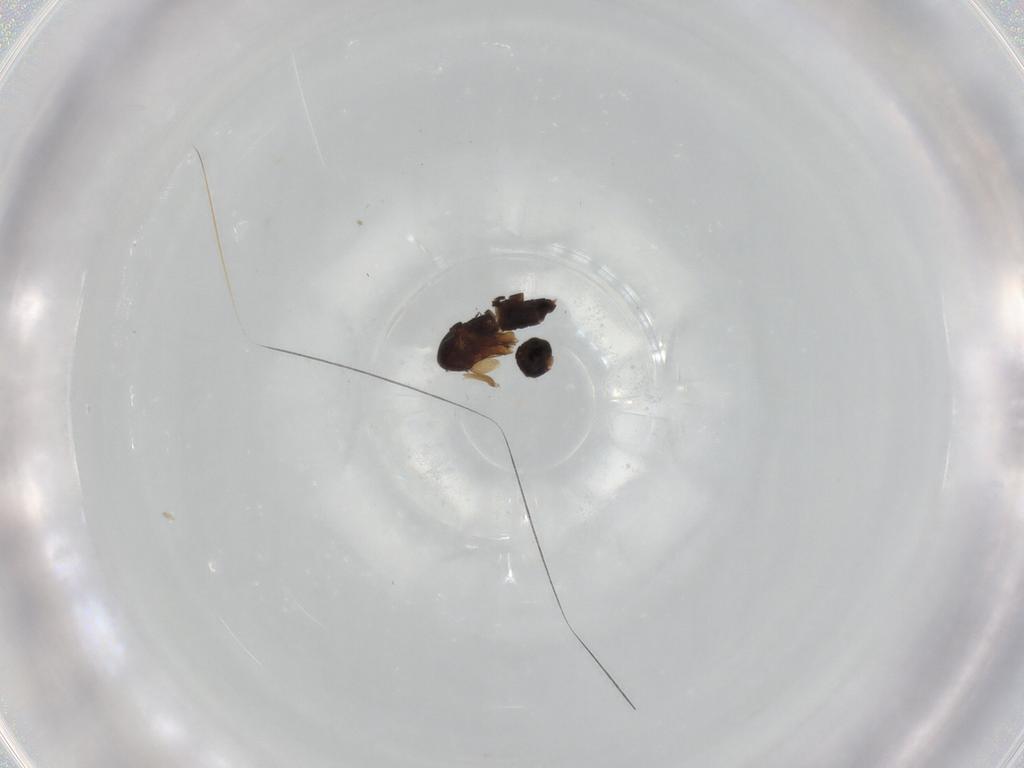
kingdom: Animalia
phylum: Arthropoda
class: Insecta
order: Diptera
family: Phoridae
